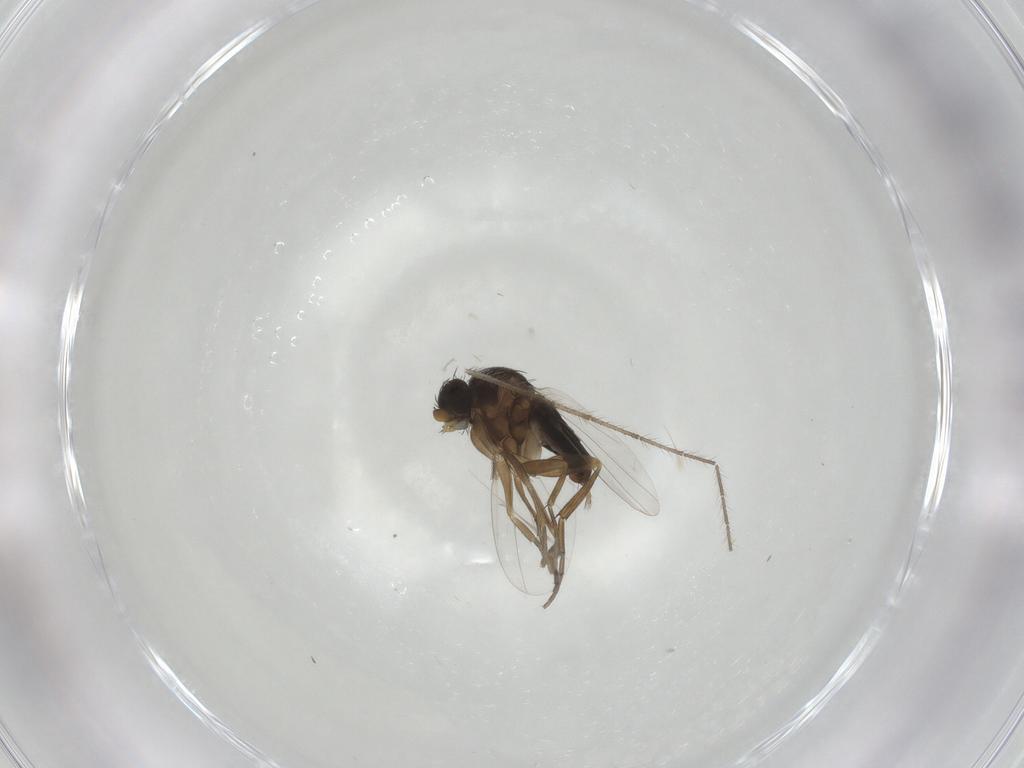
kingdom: Animalia
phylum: Arthropoda
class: Insecta
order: Diptera
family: Phoridae
